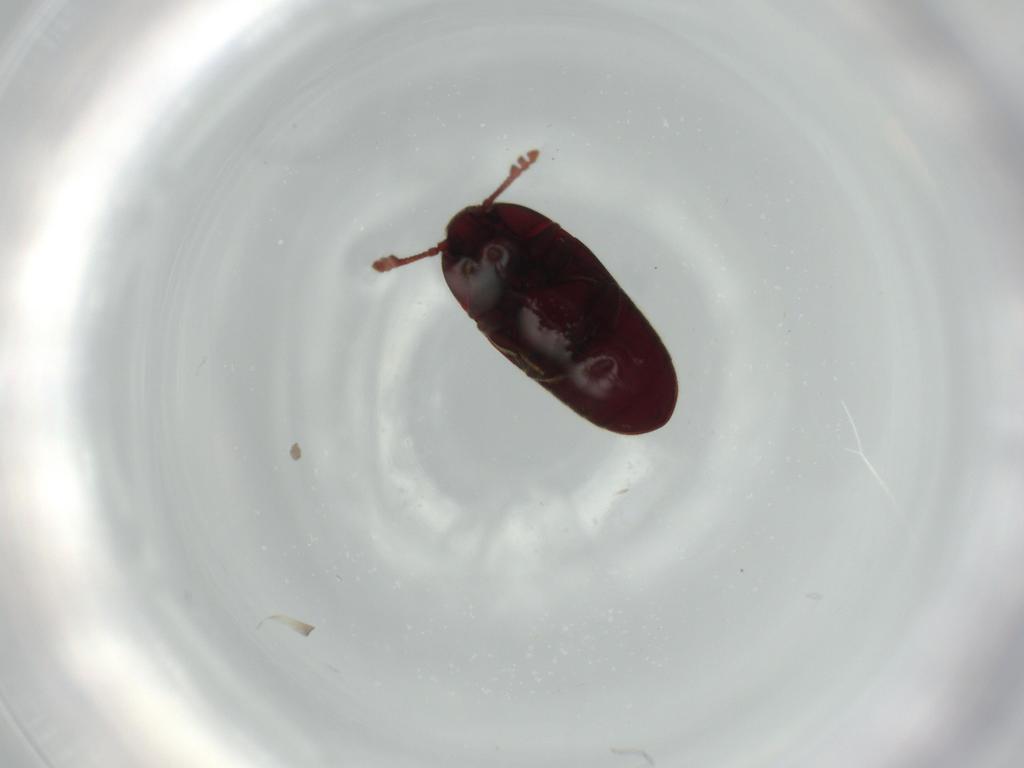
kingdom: Animalia
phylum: Arthropoda
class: Insecta
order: Coleoptera
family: Throscidae
